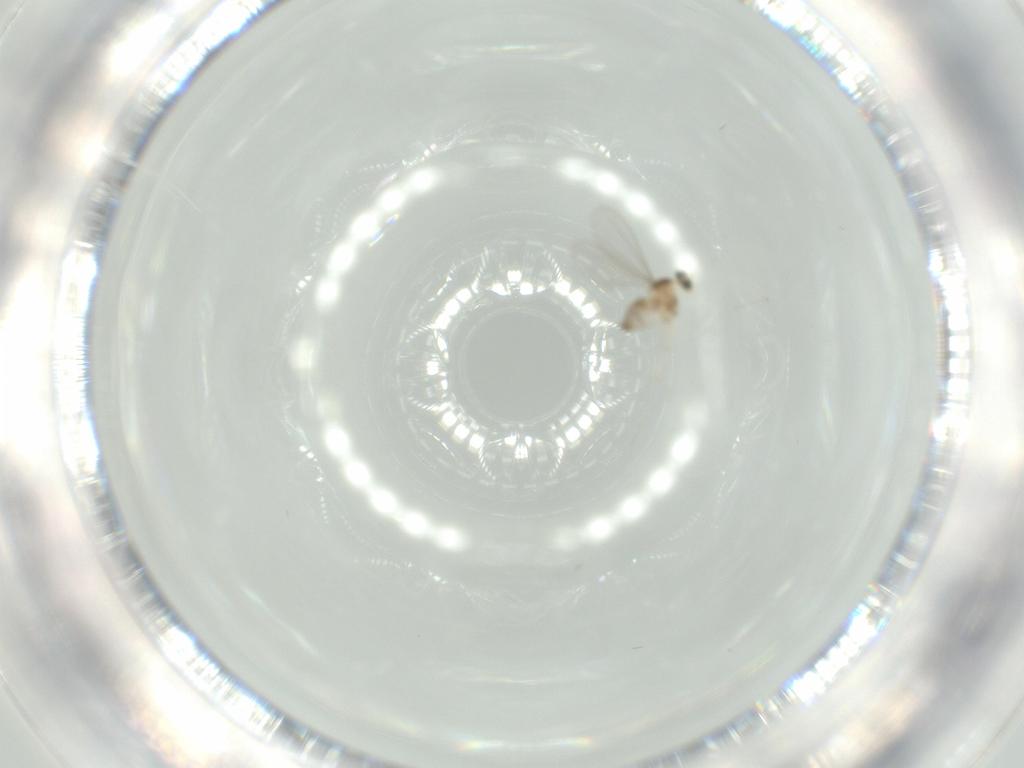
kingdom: Animalia
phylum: Arthropoda
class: Insecta
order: Diptera
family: Cecidomyiidae
